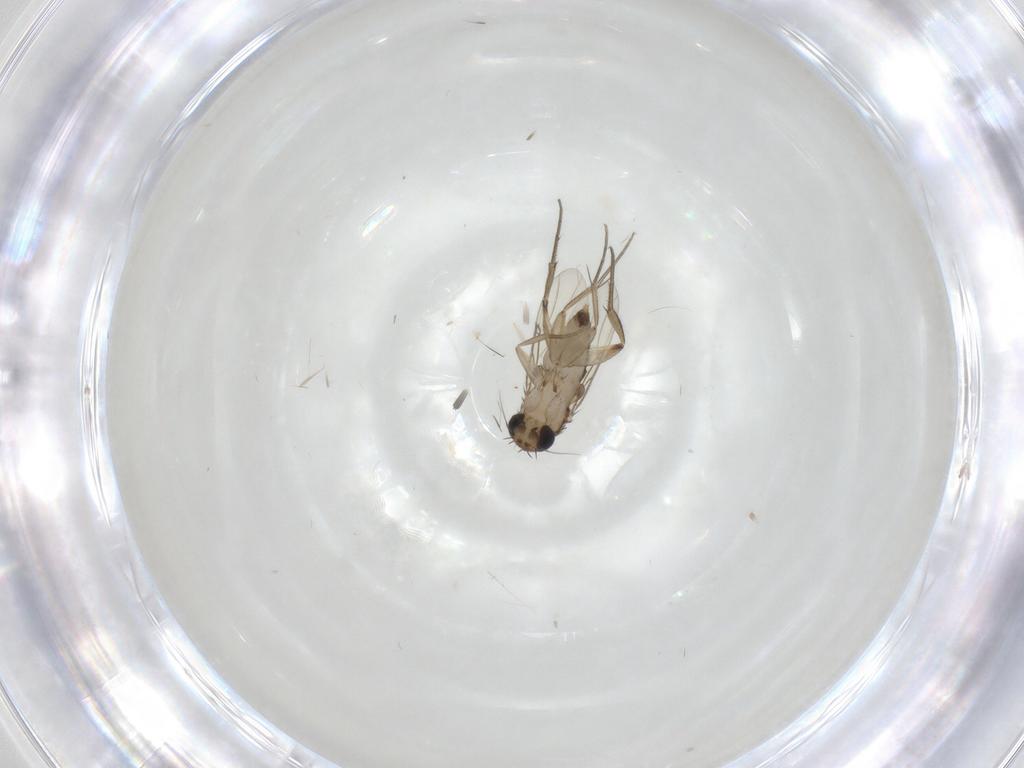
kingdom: Animalia
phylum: Arthropoda
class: Insecta
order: Diptera
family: Phoridae
